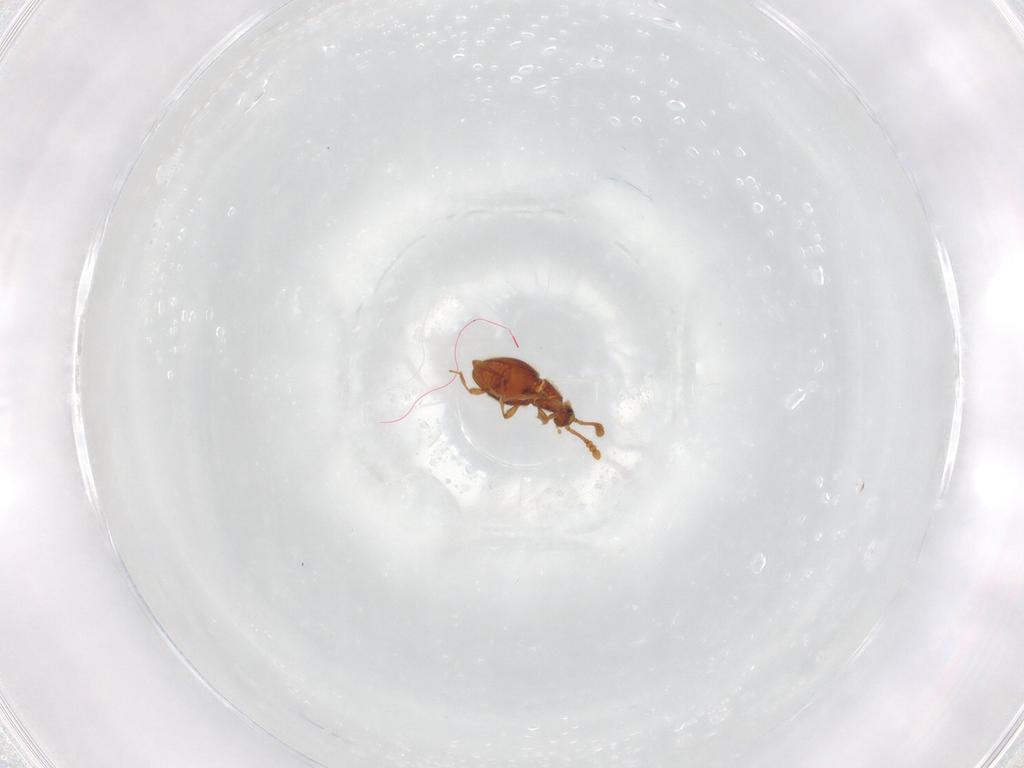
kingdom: Animalia
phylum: Arthropoda
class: Insecta
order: Coleoptera
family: Staphylinidae
